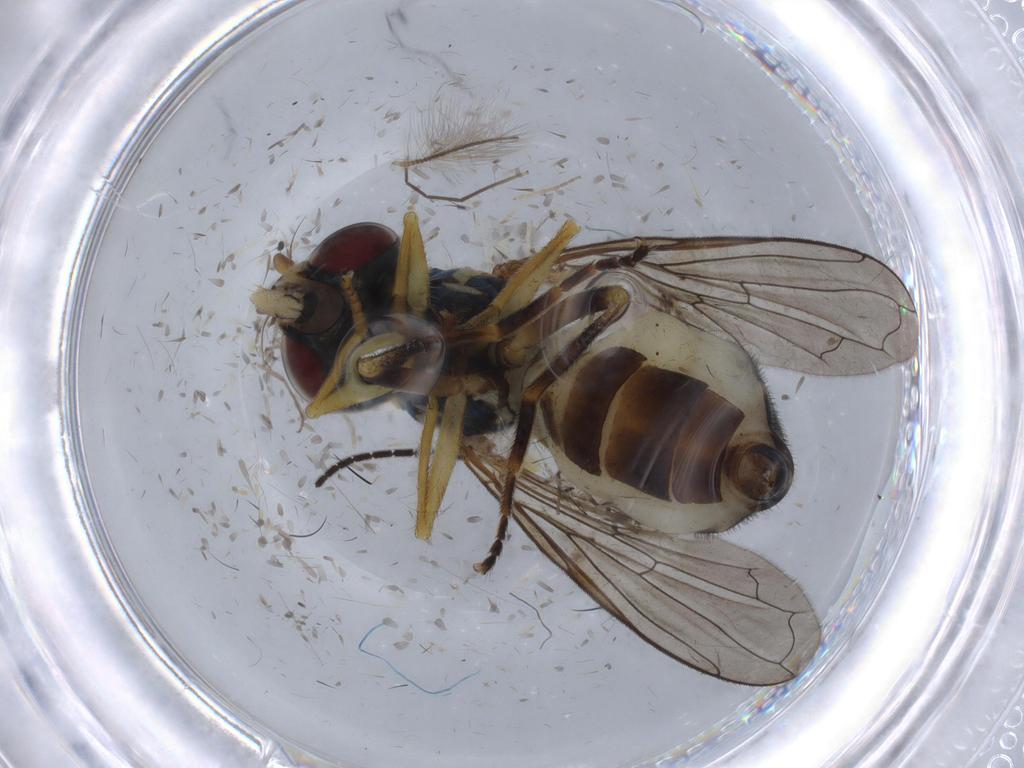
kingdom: Animalia
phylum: Arthropoda
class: Insecta
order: Diptera
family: Syrphidae
